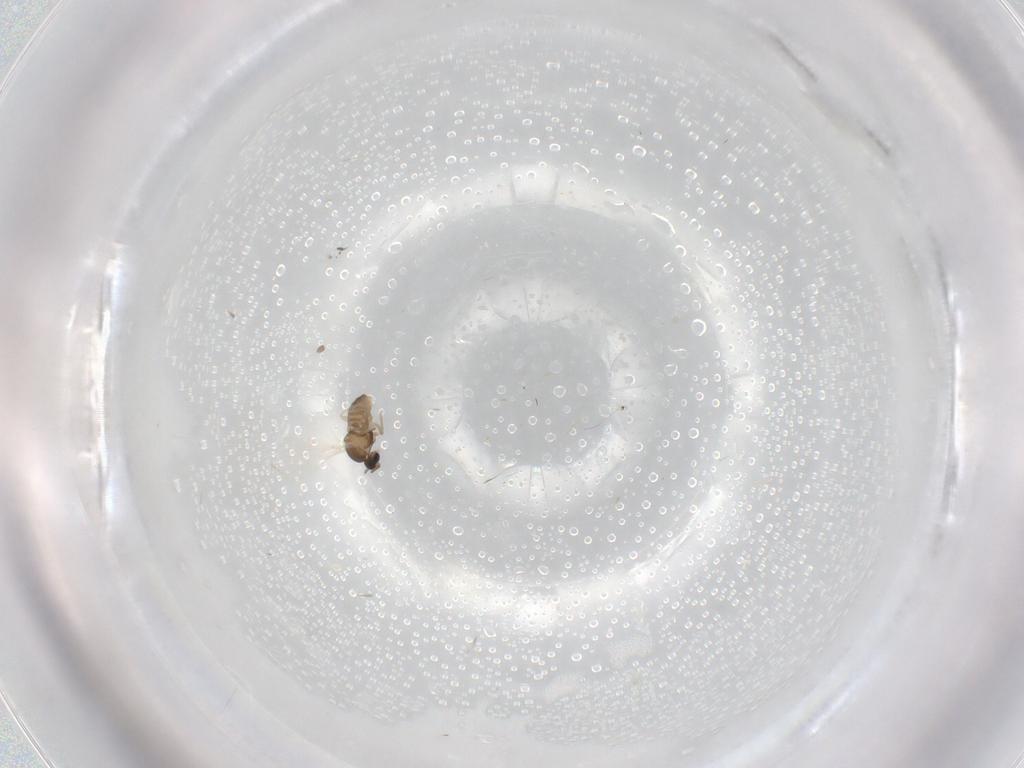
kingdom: Animalia
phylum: Arthropoda
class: Insecta
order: Diptera
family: Cecidomyiidae
